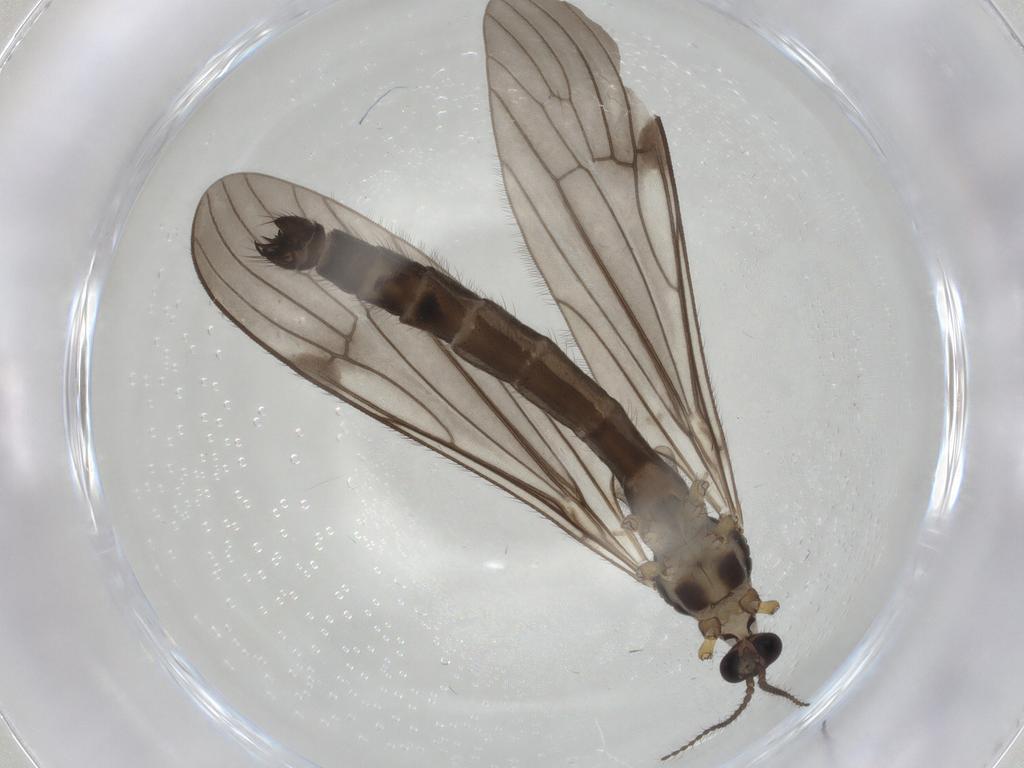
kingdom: Animalia
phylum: Arthropoda
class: Insecta
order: Diptera
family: Limoniidae
